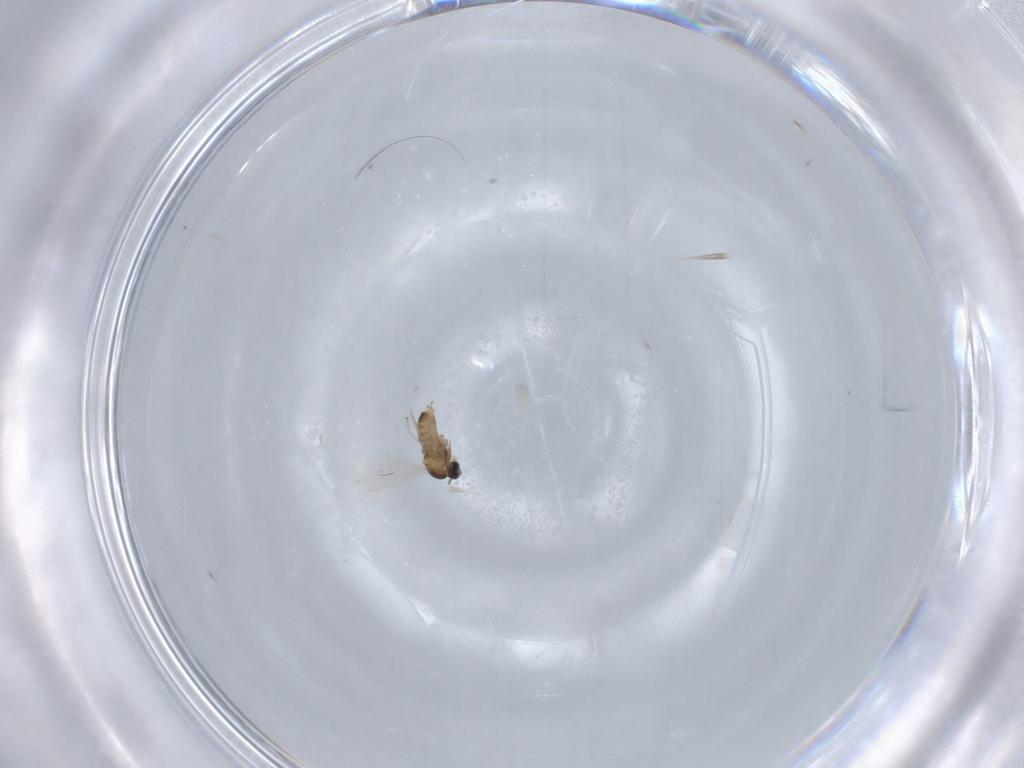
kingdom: Animalia
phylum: Arthropoda
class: Insecta
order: Diptera
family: Cecidomyiidae
